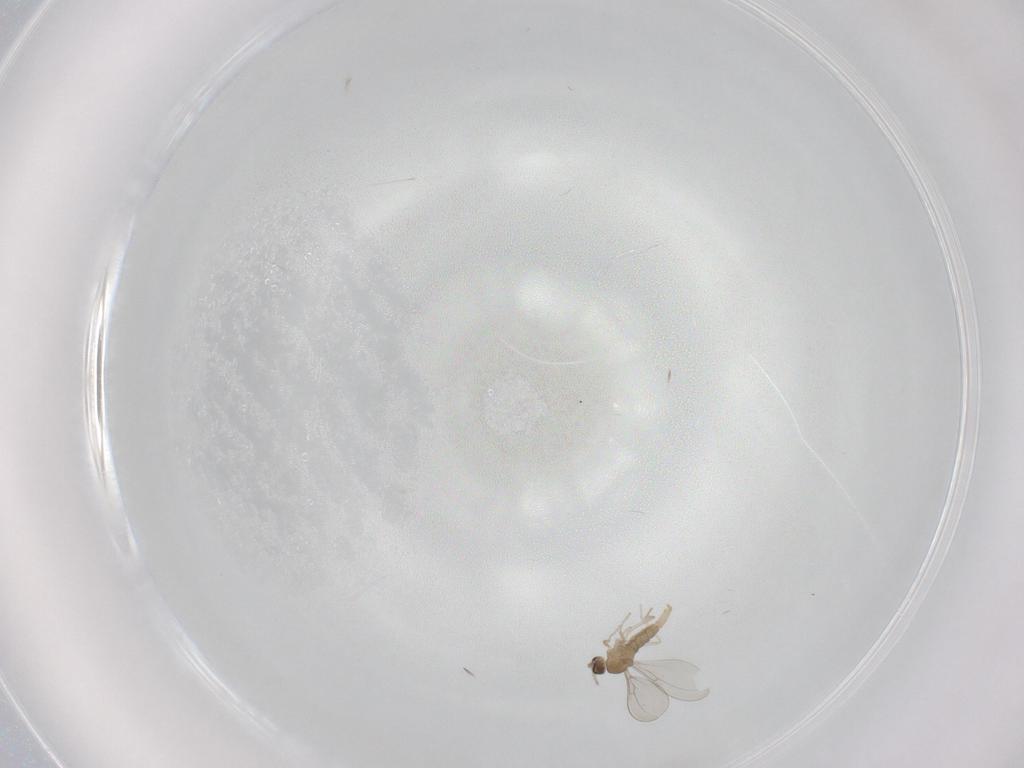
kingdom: Animalia
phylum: Arthropoda
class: Insecta
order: Diptera
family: Cecidomyiidae
